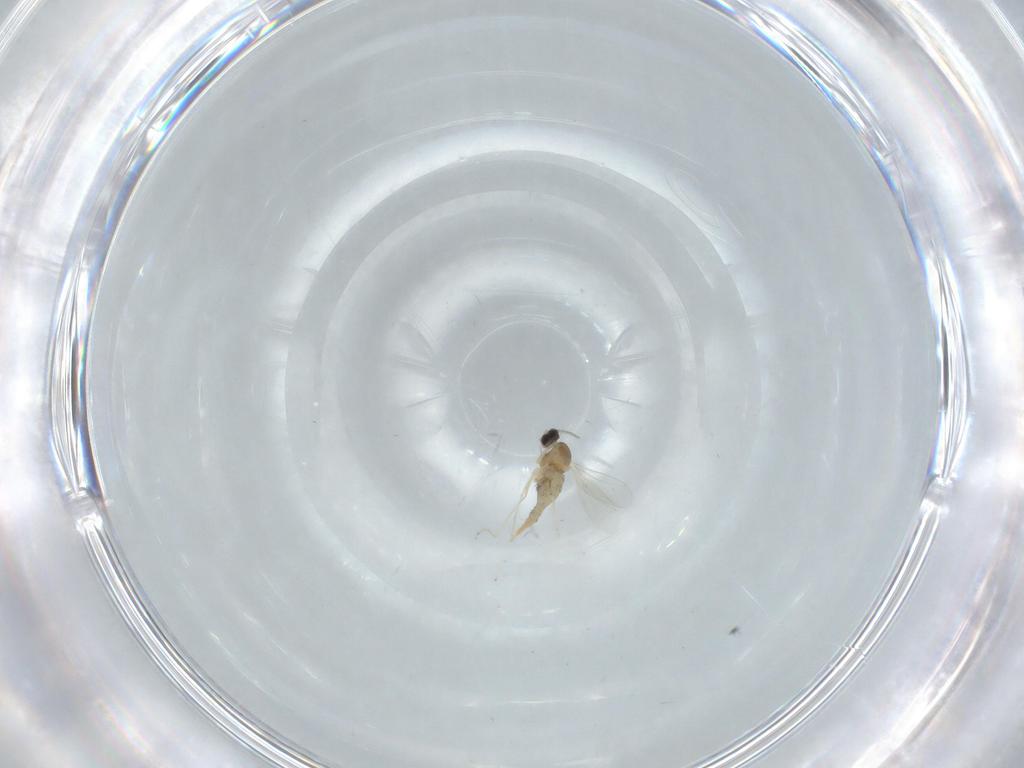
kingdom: Animalia
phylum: Arthropoda
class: Insecta
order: Diptera
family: Cecidomyiidae
